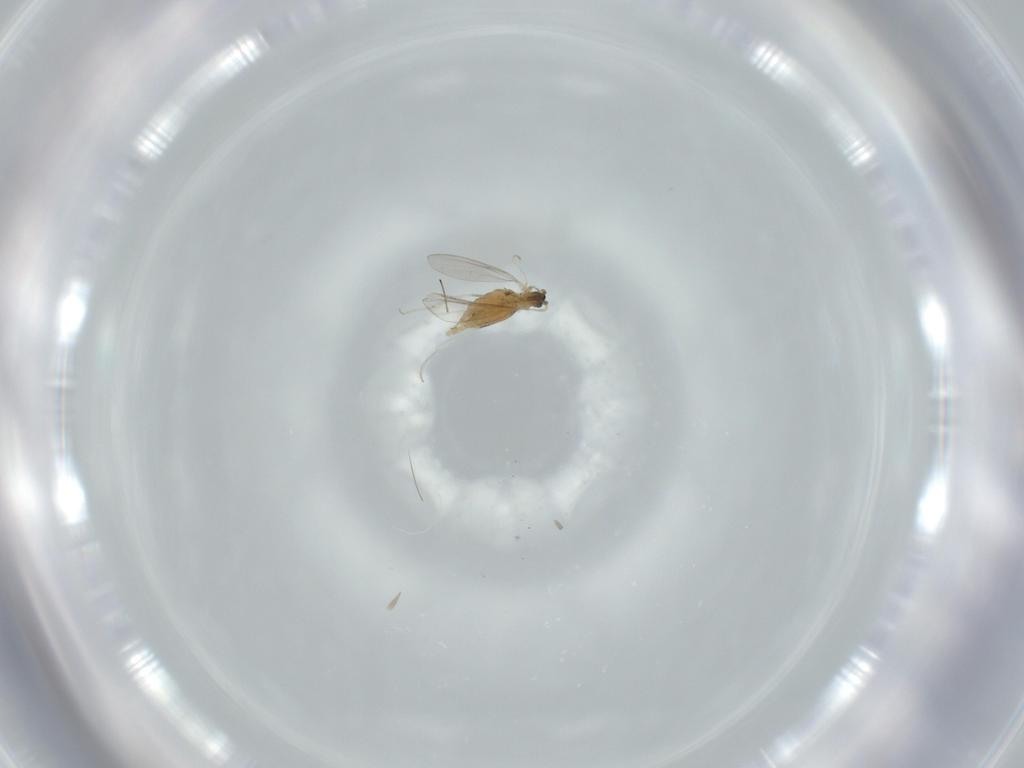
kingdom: Animalia
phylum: Arthropoda
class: Insecta
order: Diptera
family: Cecidomyiidae
